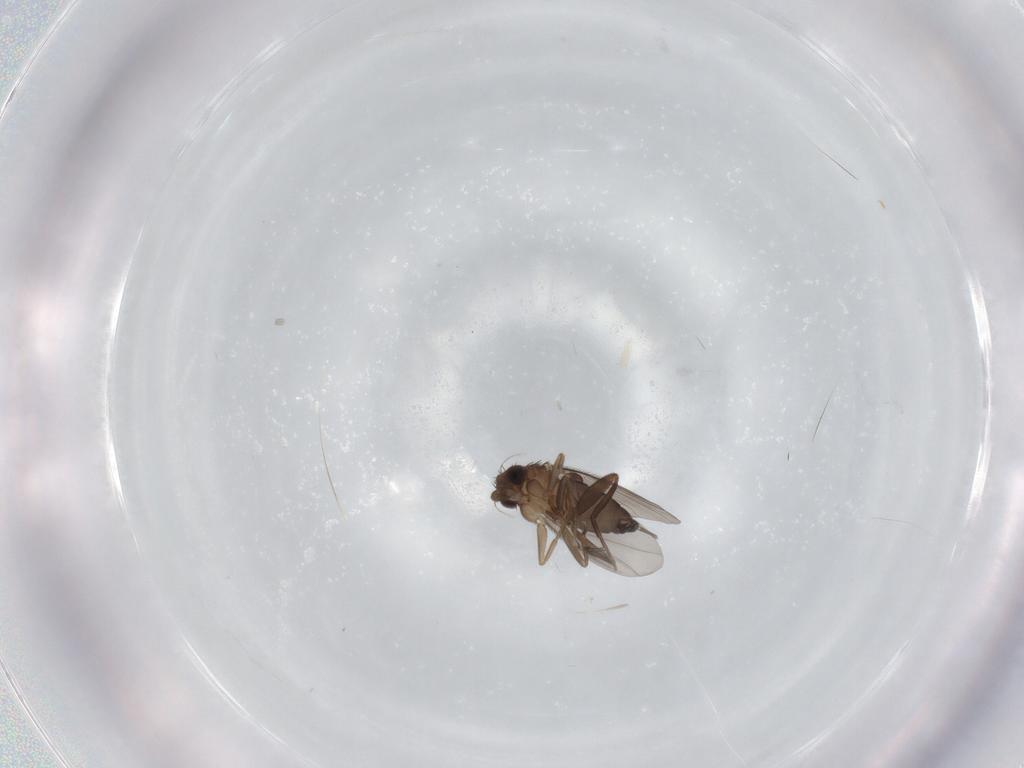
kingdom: Animalia
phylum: Arthropoda
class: Insecta
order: Diptera
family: Phoridae
